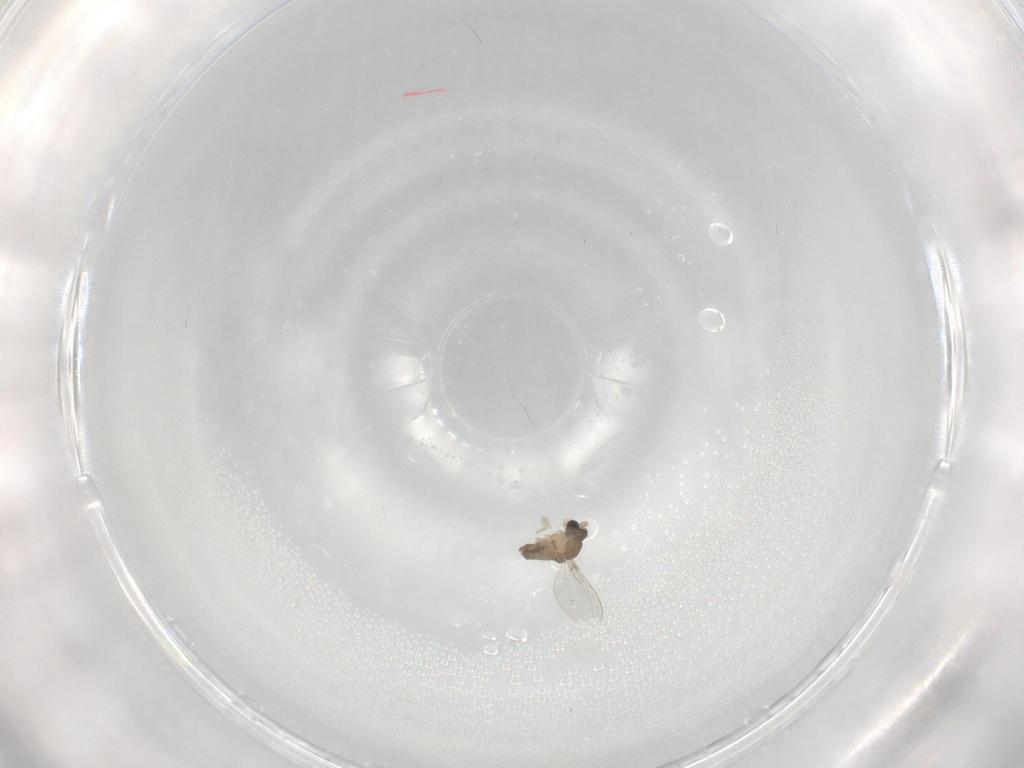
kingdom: Animalia
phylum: Arthropoda
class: Insecta
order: Diptera
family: Cecidomyiidae
